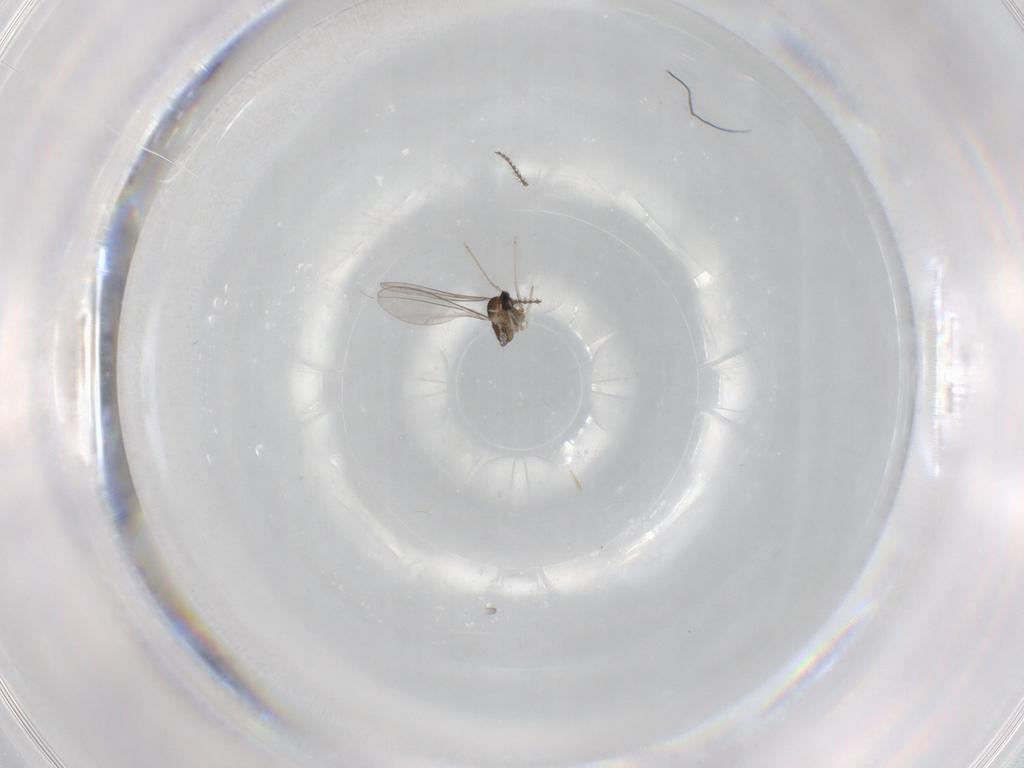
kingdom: Animalia
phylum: Arthropoda
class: Insecta
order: Diptera
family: Cecidomyiidae
